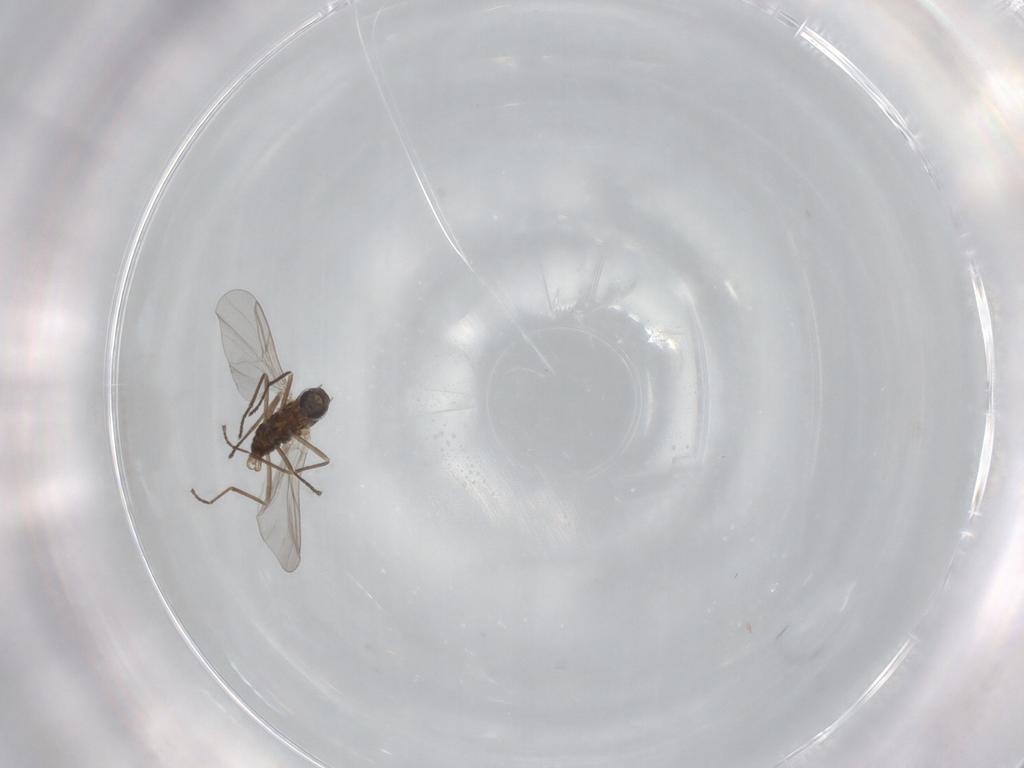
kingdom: Animalia
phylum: Arthropoda
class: Insecta
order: Diptera
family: Cecidomyiidae
